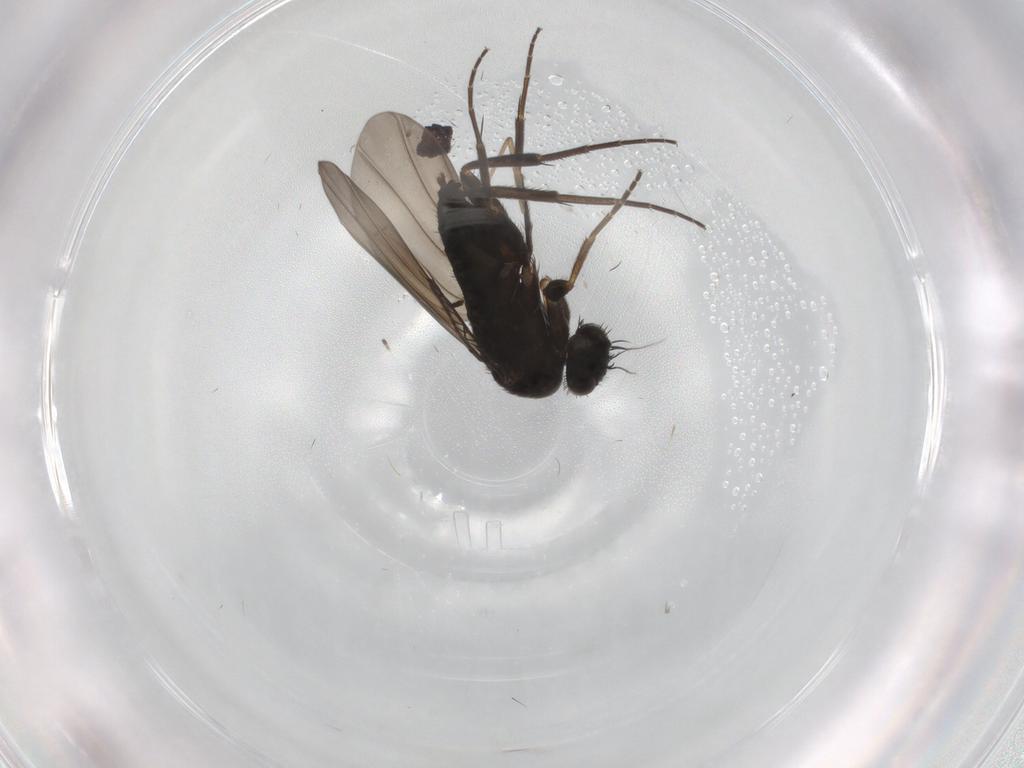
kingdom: Animalia
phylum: Arthropoda
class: Insecta
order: Diptera
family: Phoridae
